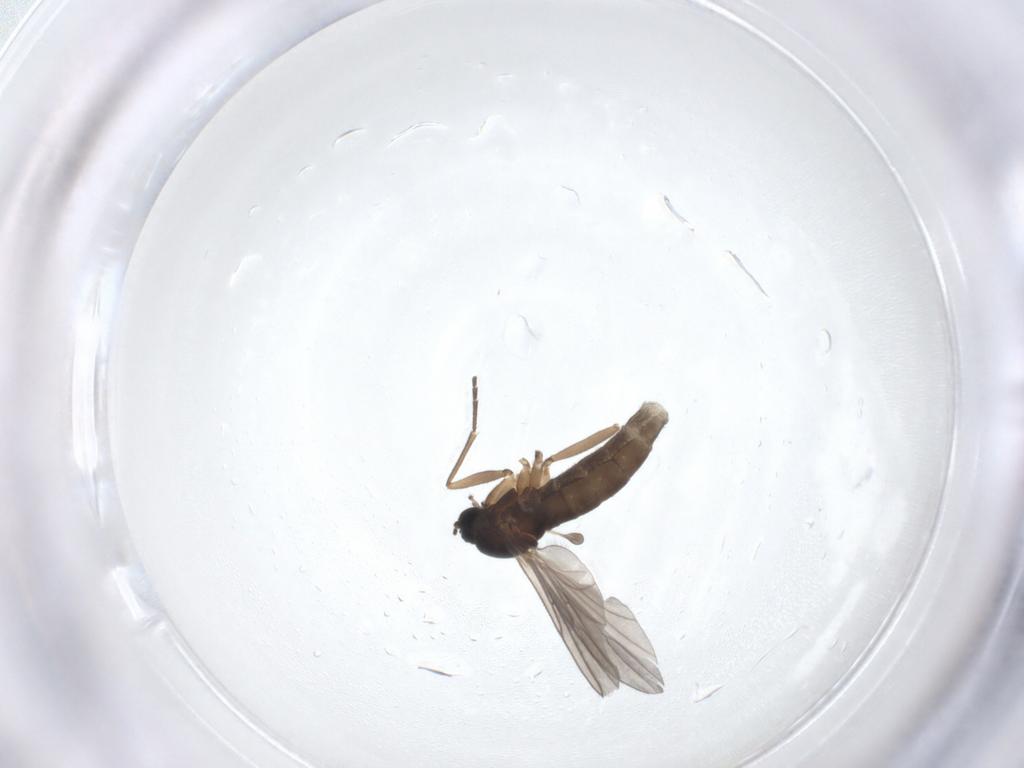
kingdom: Animalia
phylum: Arthropoda
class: Insecta
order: Diptera
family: Sciaridae
